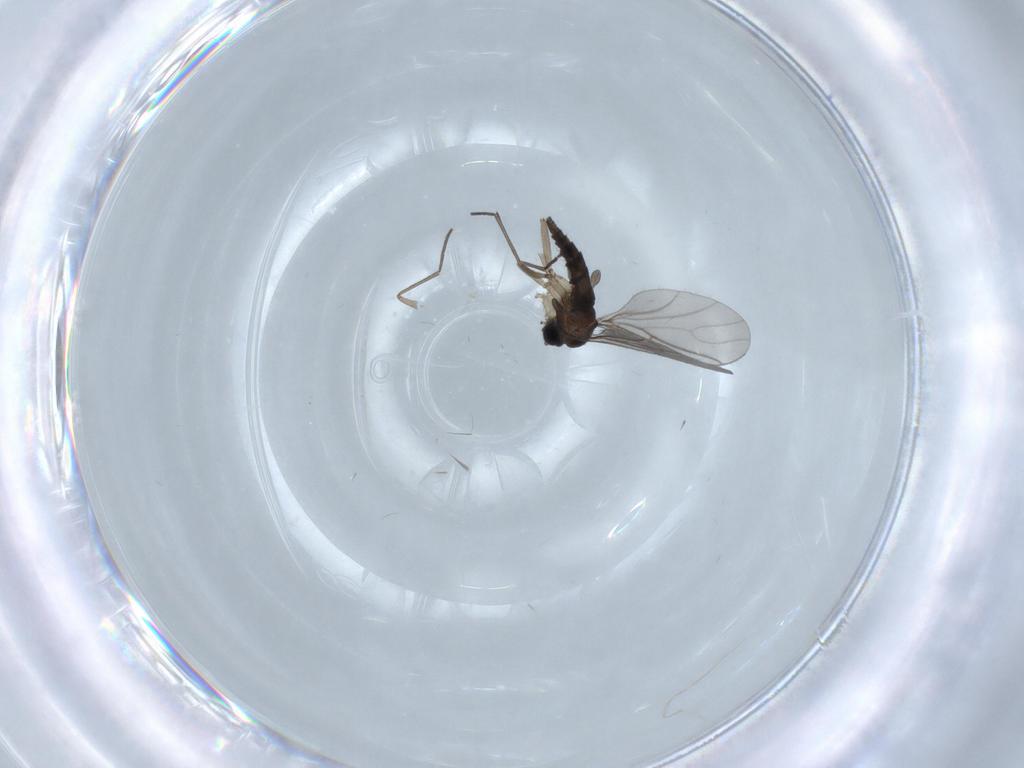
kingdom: Animalia
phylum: Arthropoda
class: Insecta
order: Diptera
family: Sciaridae
